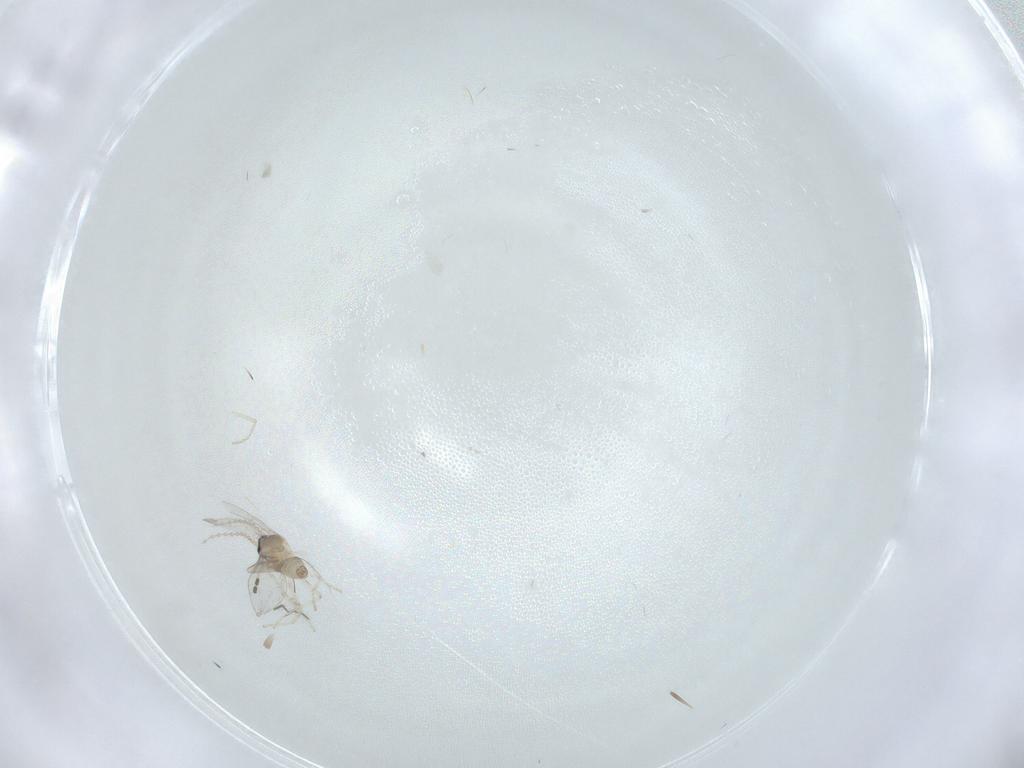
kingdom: Animalia
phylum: Arthropoda
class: Insecta
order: Diptera
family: Cecidomyiidae
